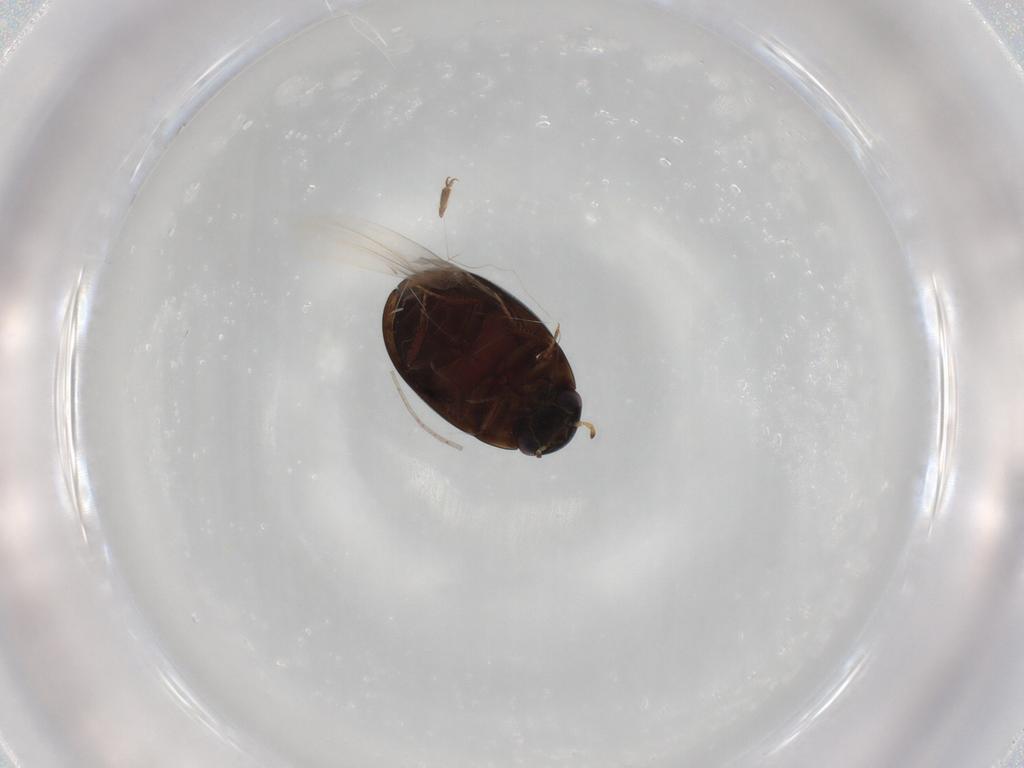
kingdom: Animalia
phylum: Arthropoda
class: Insecta
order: Coleoptera
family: Hydrophilidae
